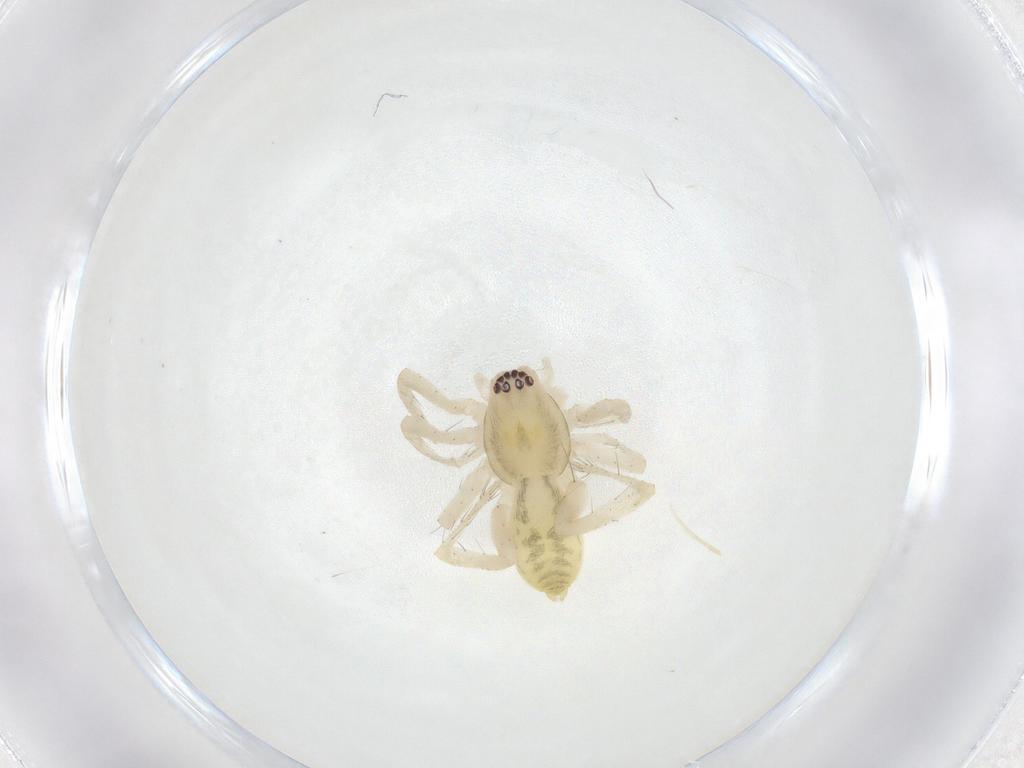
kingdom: Animalia
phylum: Arthropoda
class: Arachnida
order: Araneae
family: Anyphaenidae
